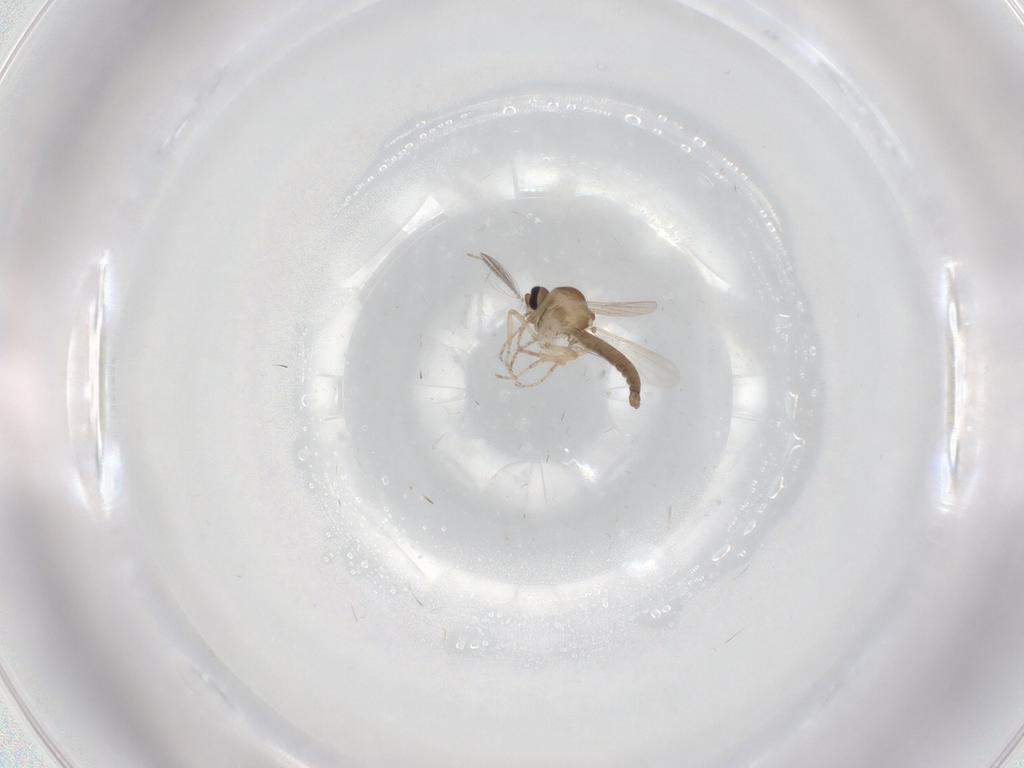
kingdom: Animalia
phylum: Arthropoda
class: Insecta
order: Diptera
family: Ceratopogonidae
